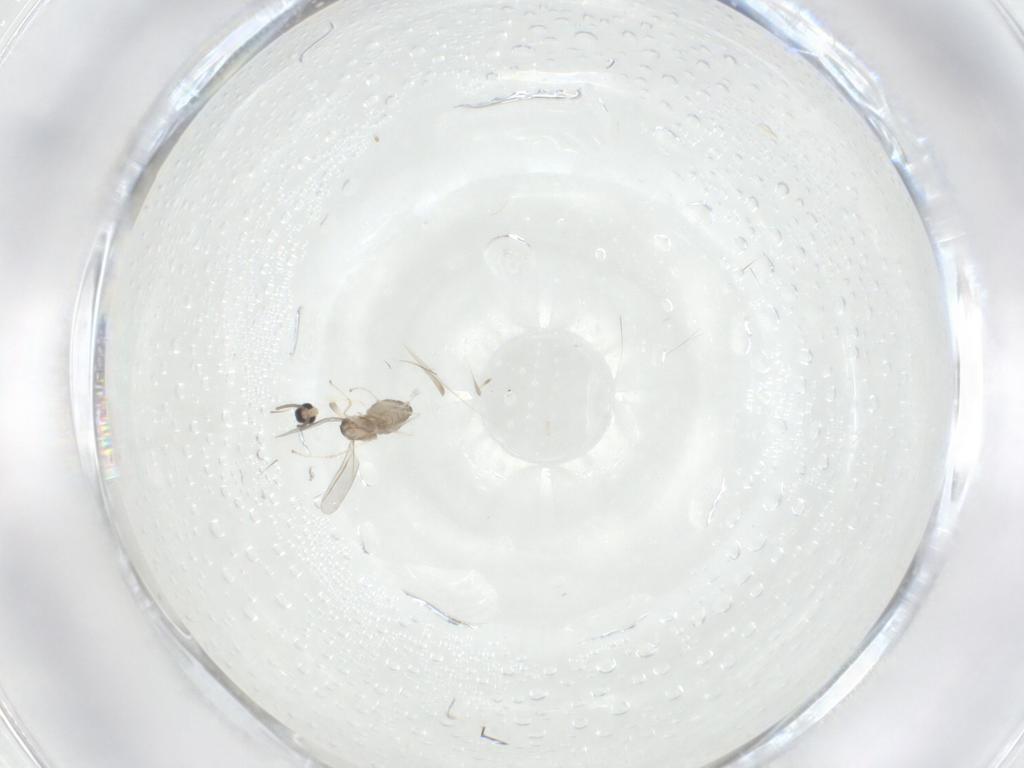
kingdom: Animalia
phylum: Arthropoda
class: Insecta
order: Diptera
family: Cecidomyiidae
